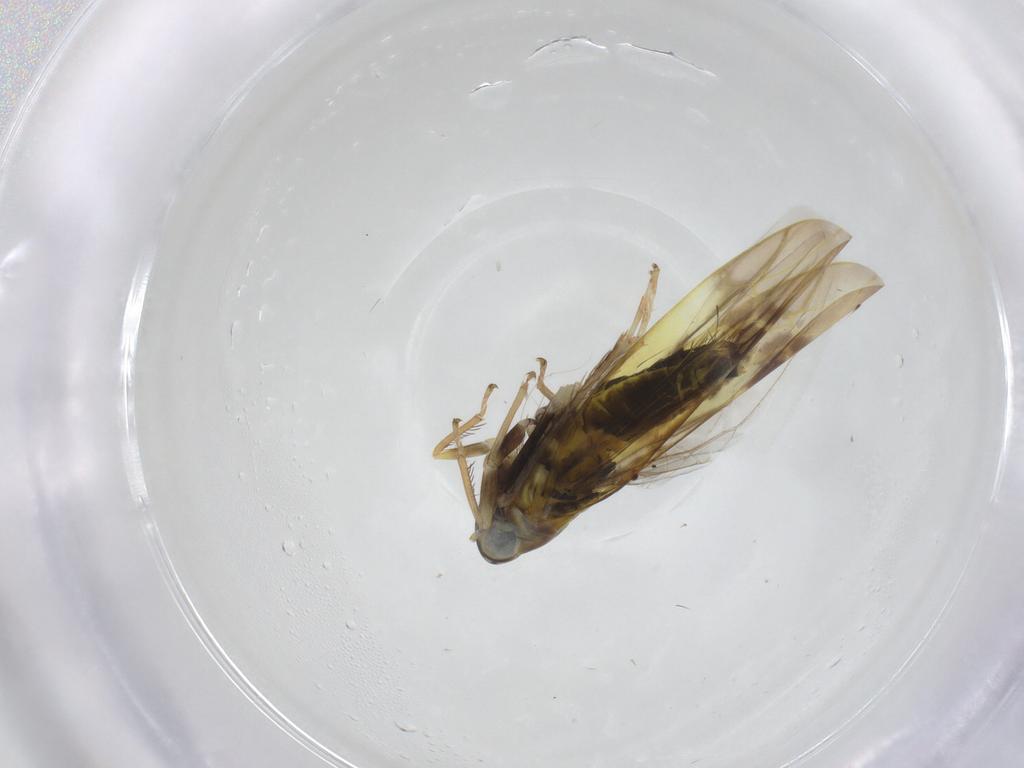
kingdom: Animalia
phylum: Arthropoda
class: Insecta
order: Hemiptera
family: Cicadellidae
